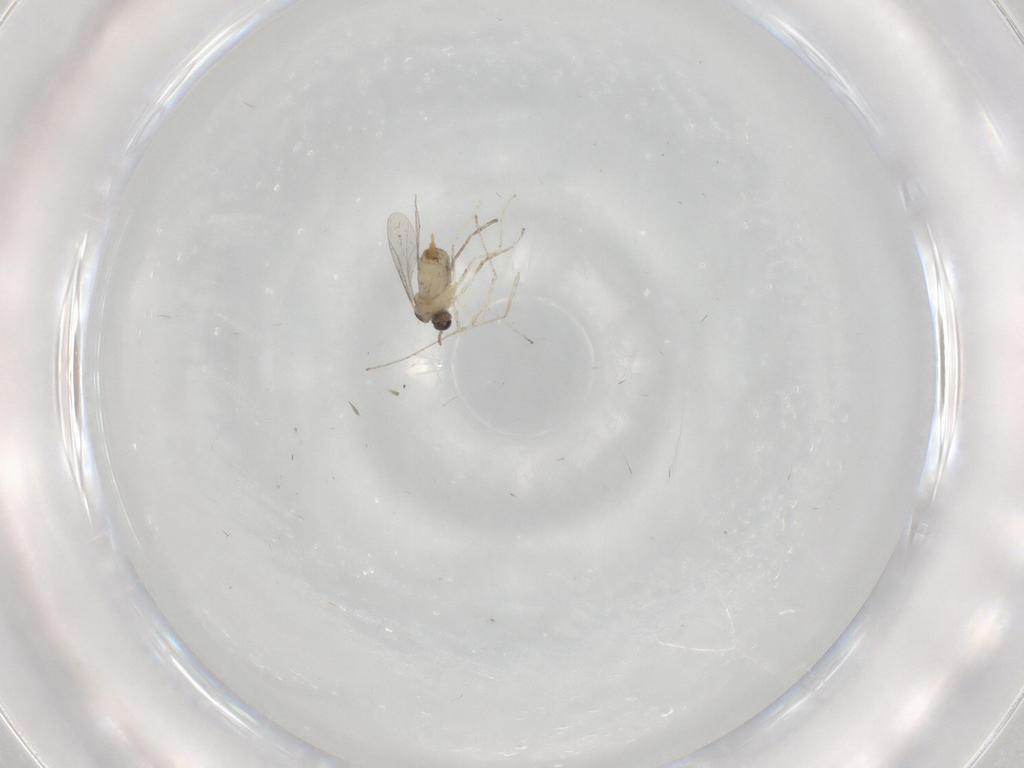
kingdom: Animalia
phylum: Arthropoda
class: Insecta
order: Diptera
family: Cecidomyiidae
